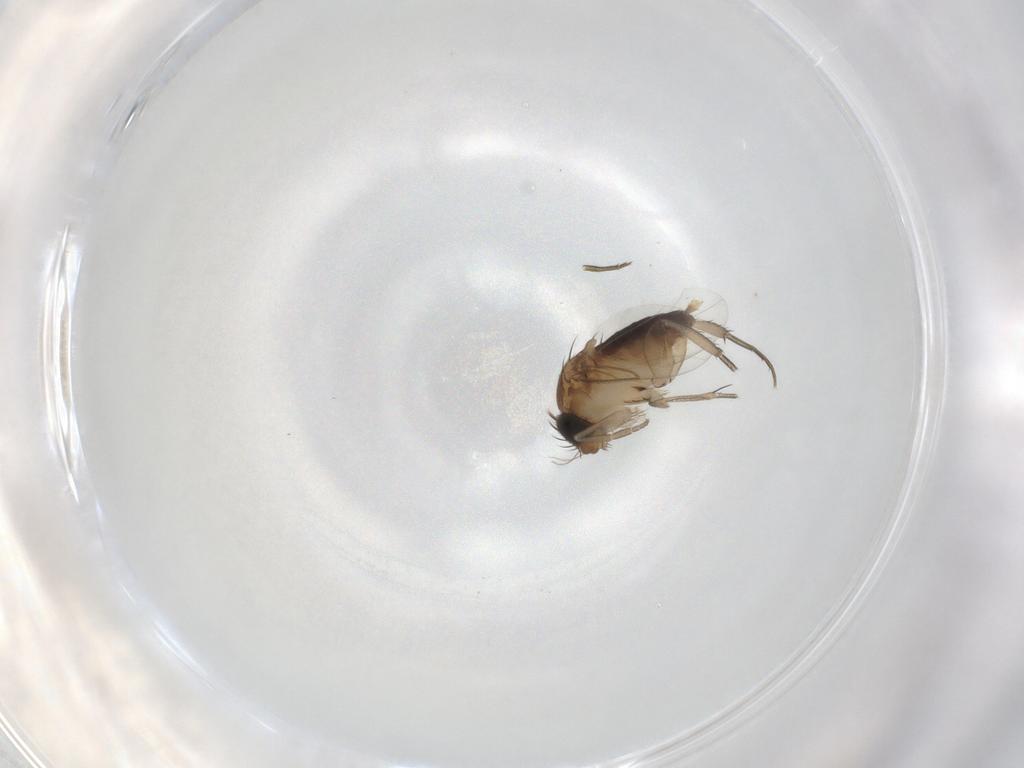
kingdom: Animalia
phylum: Arthropoda
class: Insecta
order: Diptera
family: Phoridae
